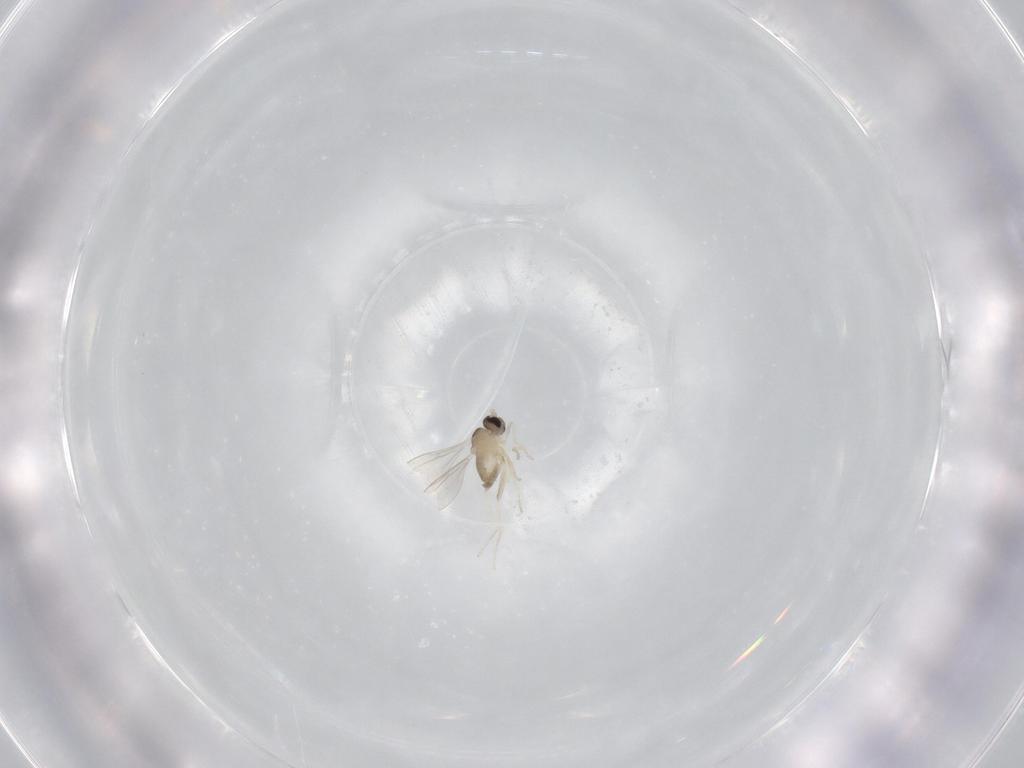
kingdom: Animalia
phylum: Arthropoda
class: Insecta
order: Diptera
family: Cecidomyiidae
